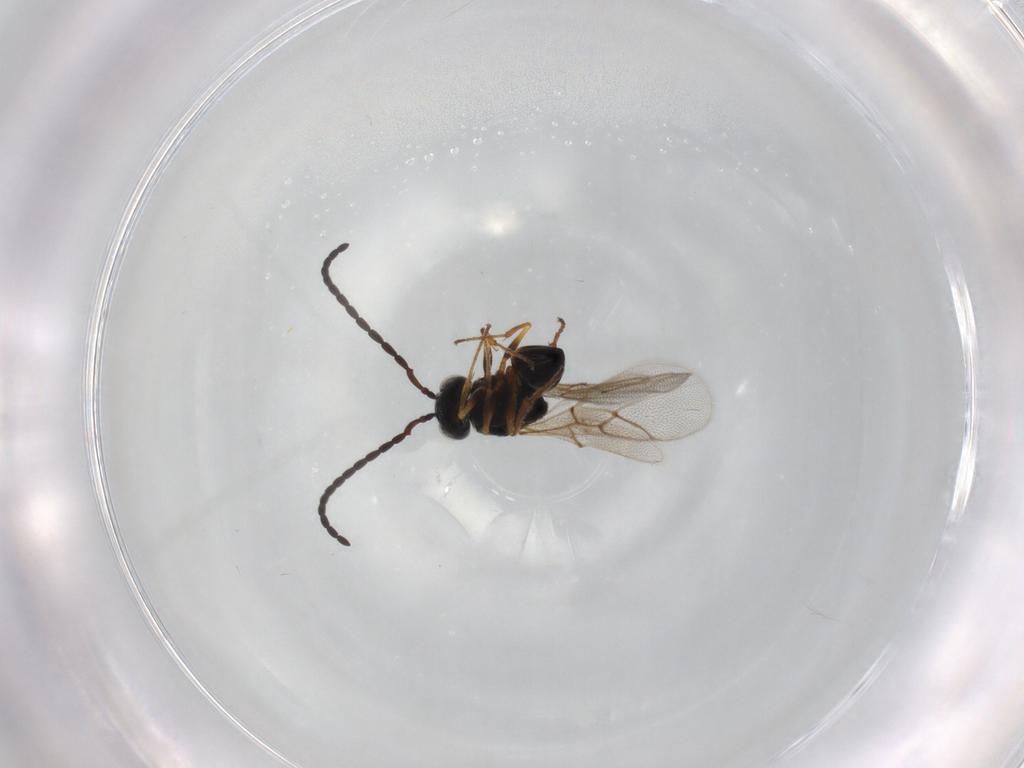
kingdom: Animalia
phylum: Arthropoda
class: Insecta
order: Hymenoptera
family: Figitidae
